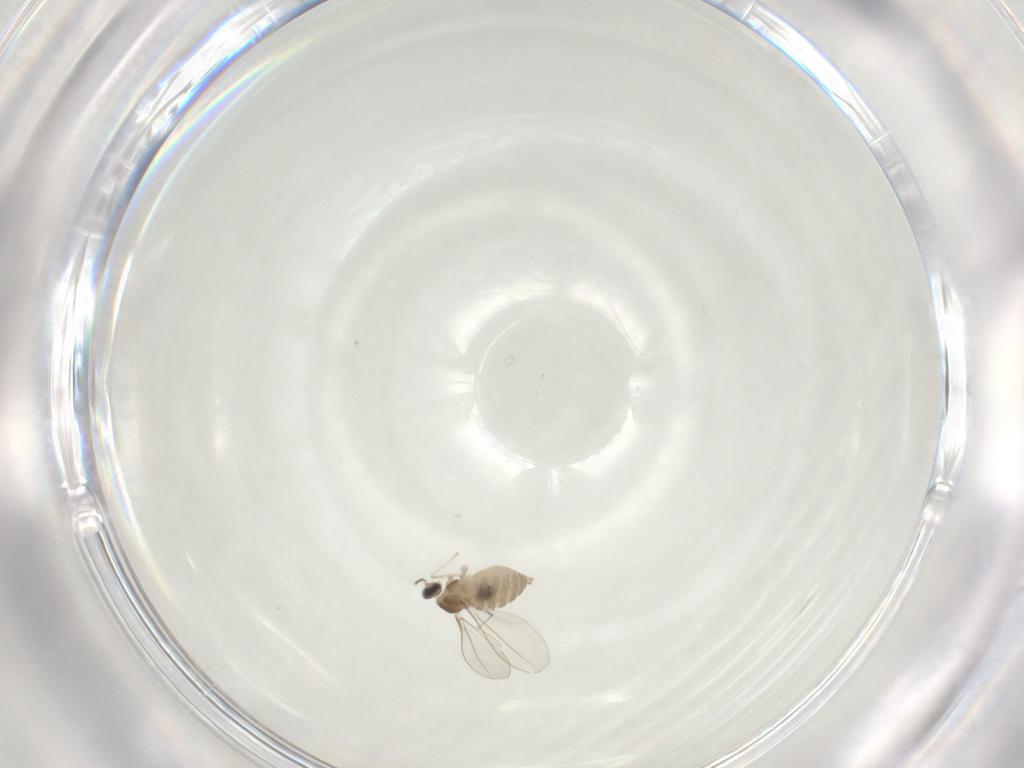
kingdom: Animalia
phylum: Arthropoda
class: Insecta
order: Diptera
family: Cecidomyiidae
